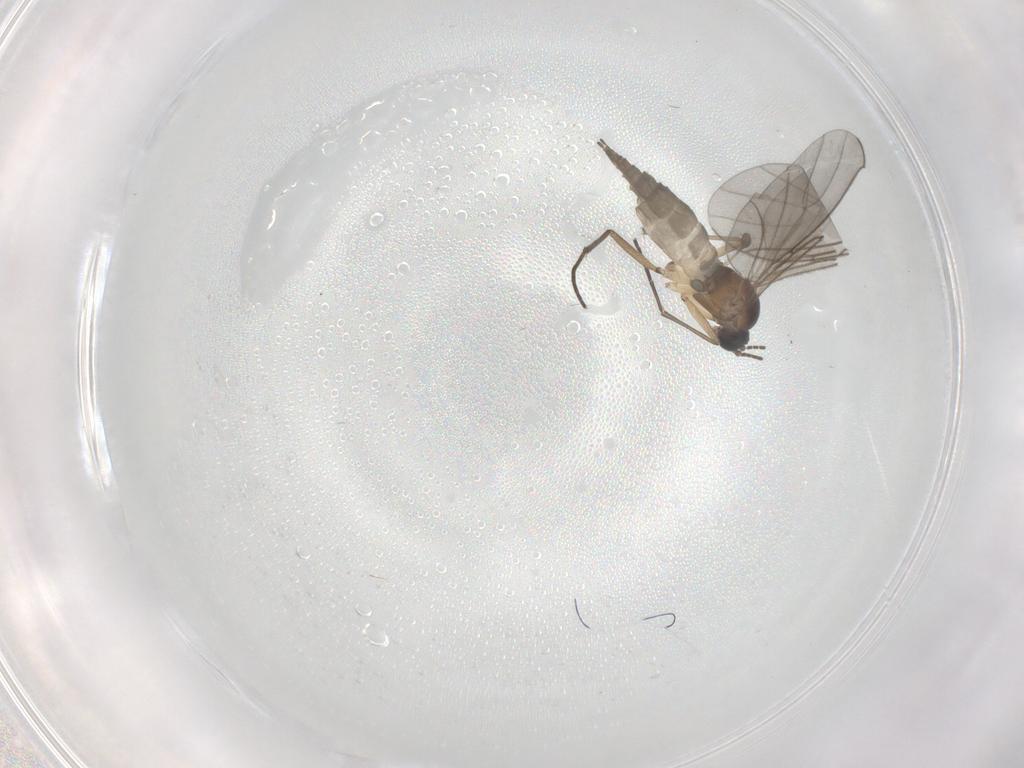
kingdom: Animalia
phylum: Arthropoda
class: Insecta
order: Diptera
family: Sciaridae
